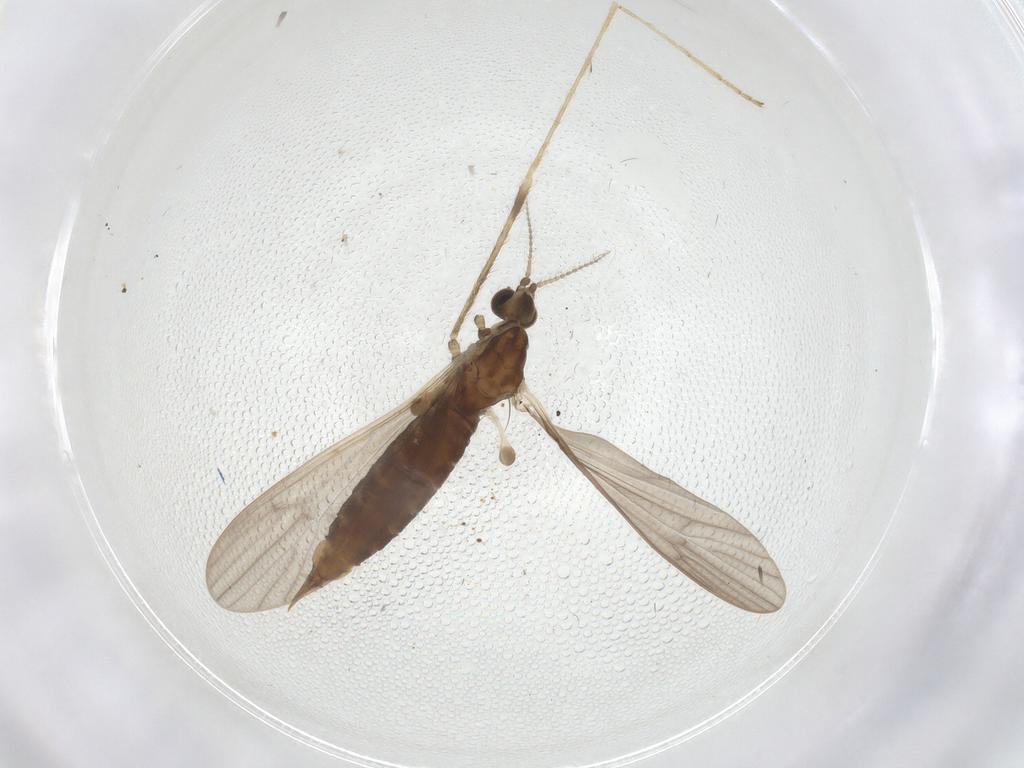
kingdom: Animalia
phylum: Arthropoda
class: Insecta
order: Diptera
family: Limoniidae
